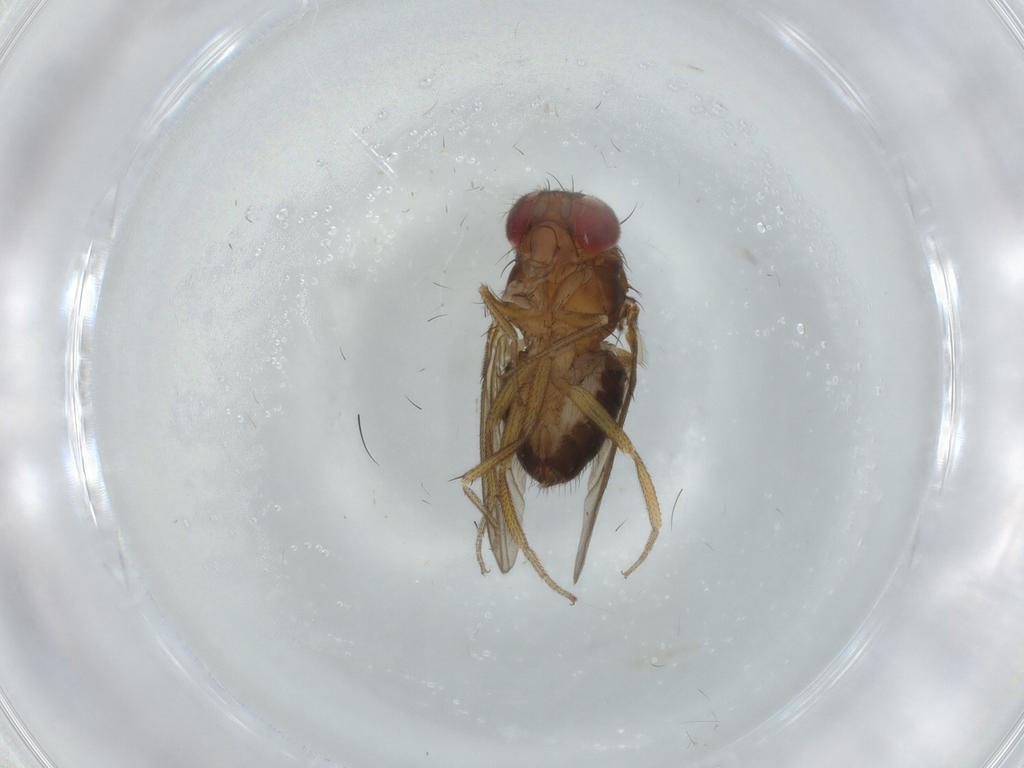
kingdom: Animalia
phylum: Arthropoda
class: Insecta
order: Diptera
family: Drosophilidae
